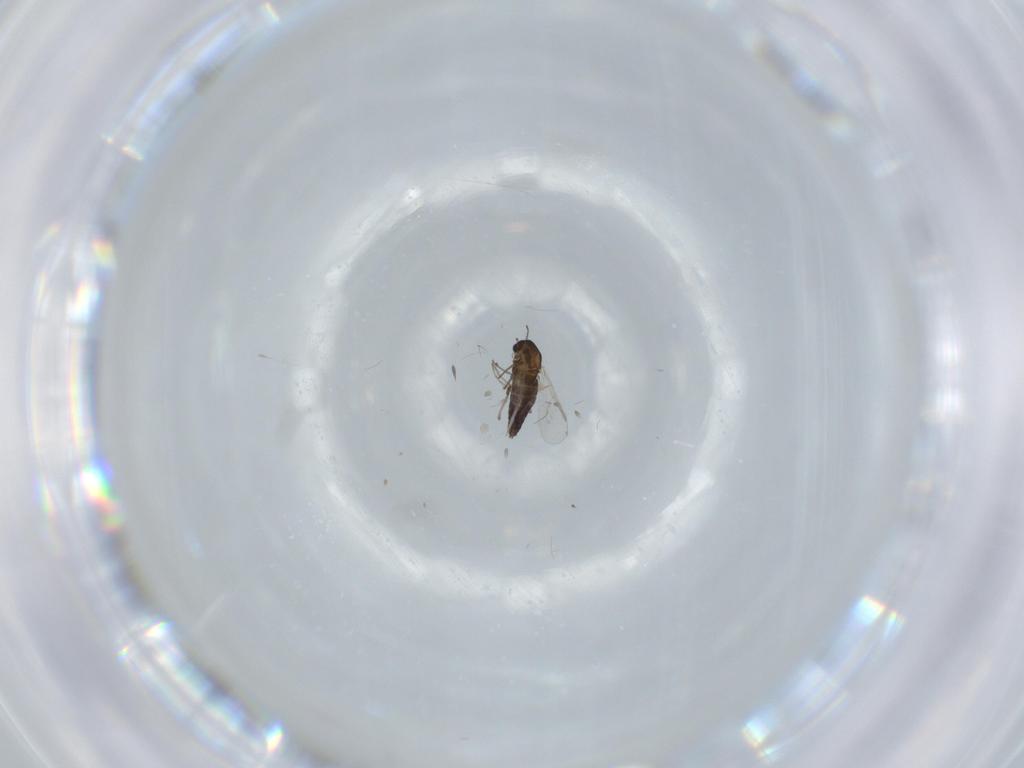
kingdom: Animalia
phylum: Arthropoda
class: Insecta
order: Diptera
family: Chironomidae
